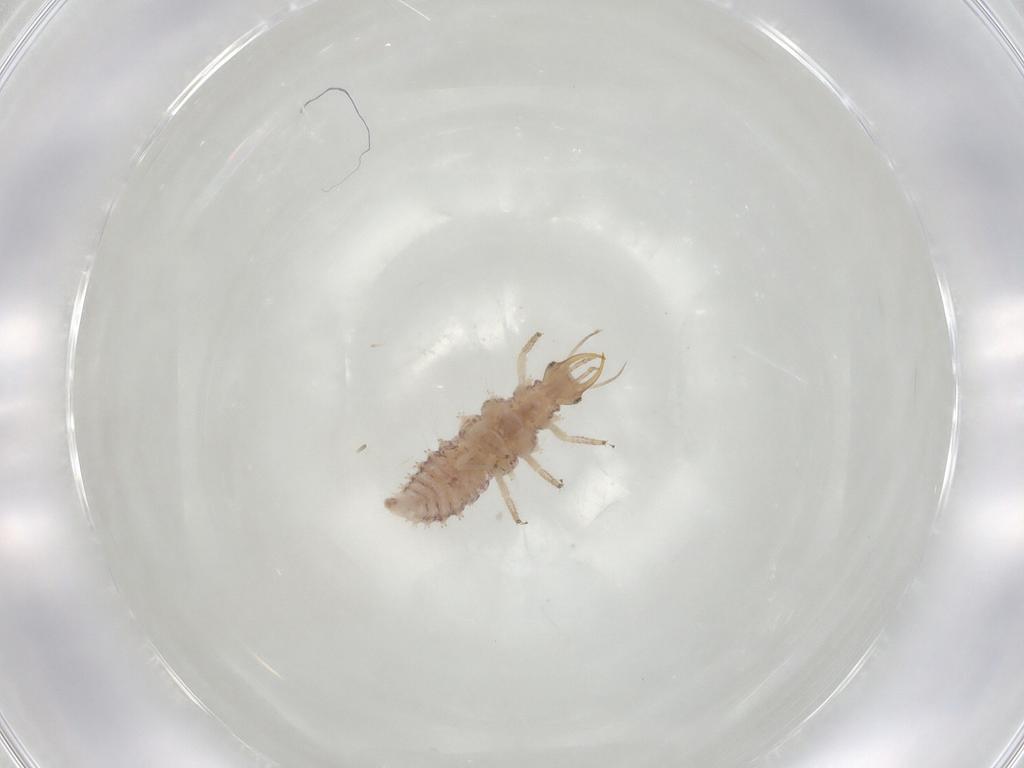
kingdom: Animalia
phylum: Arthropoda
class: Insecta
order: Neuroptera
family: Chrysopidae
